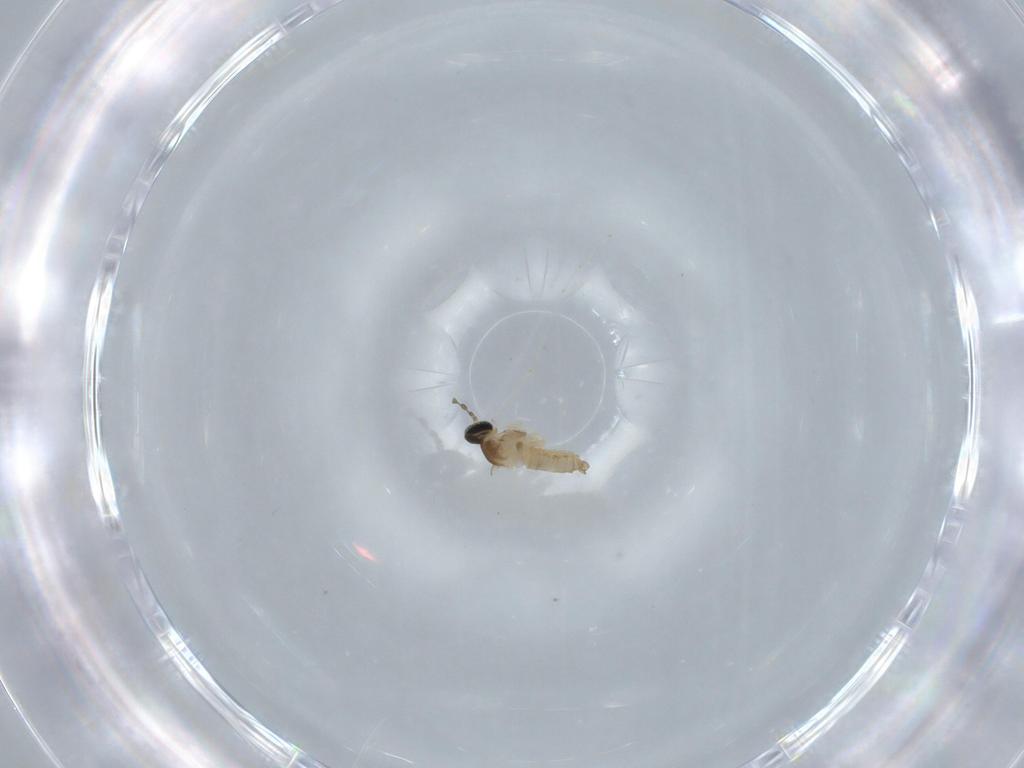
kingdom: Animalia
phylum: Arthropoda
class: Insecta
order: Diptera
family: Cecidomyiidae
